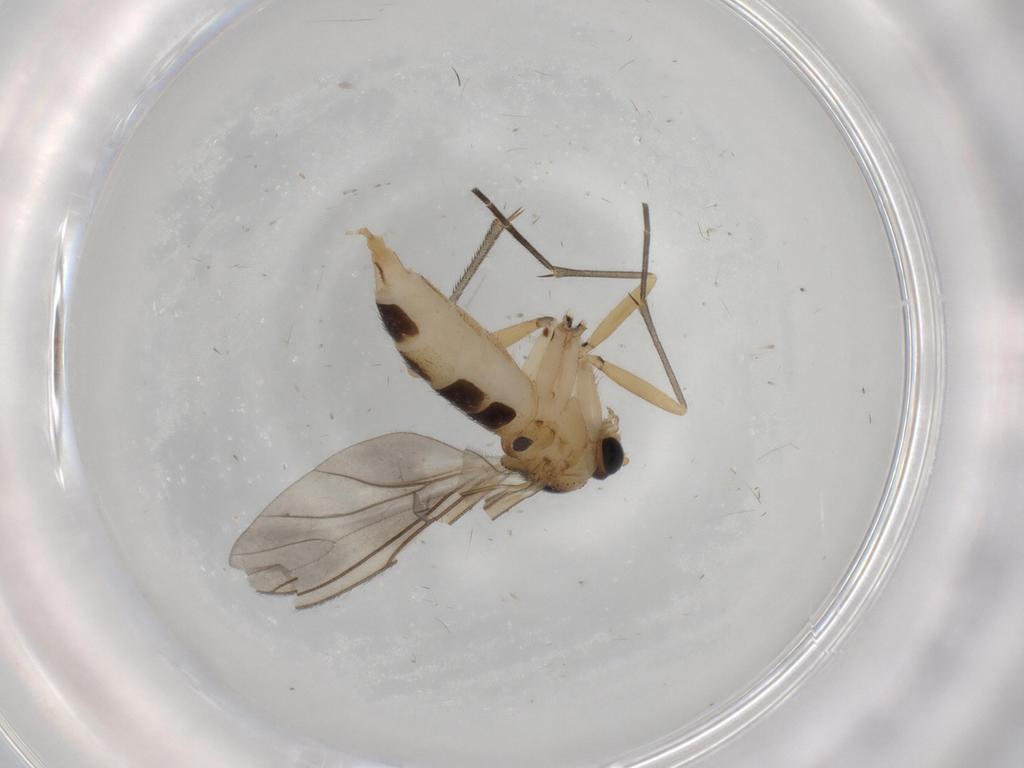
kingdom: Animalia
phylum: Arthropoda
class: Insecta
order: Diptera
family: Sciaridae
